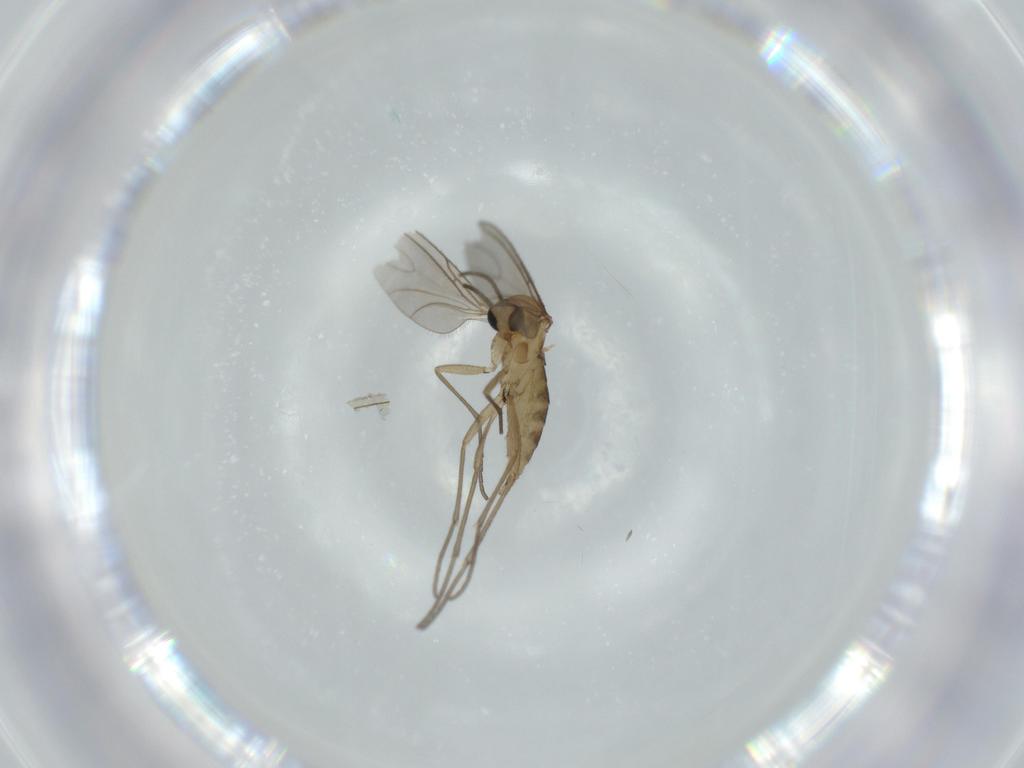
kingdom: Animalia
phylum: Arthropoda
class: Insecta
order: Diptera
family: Sciaridae
